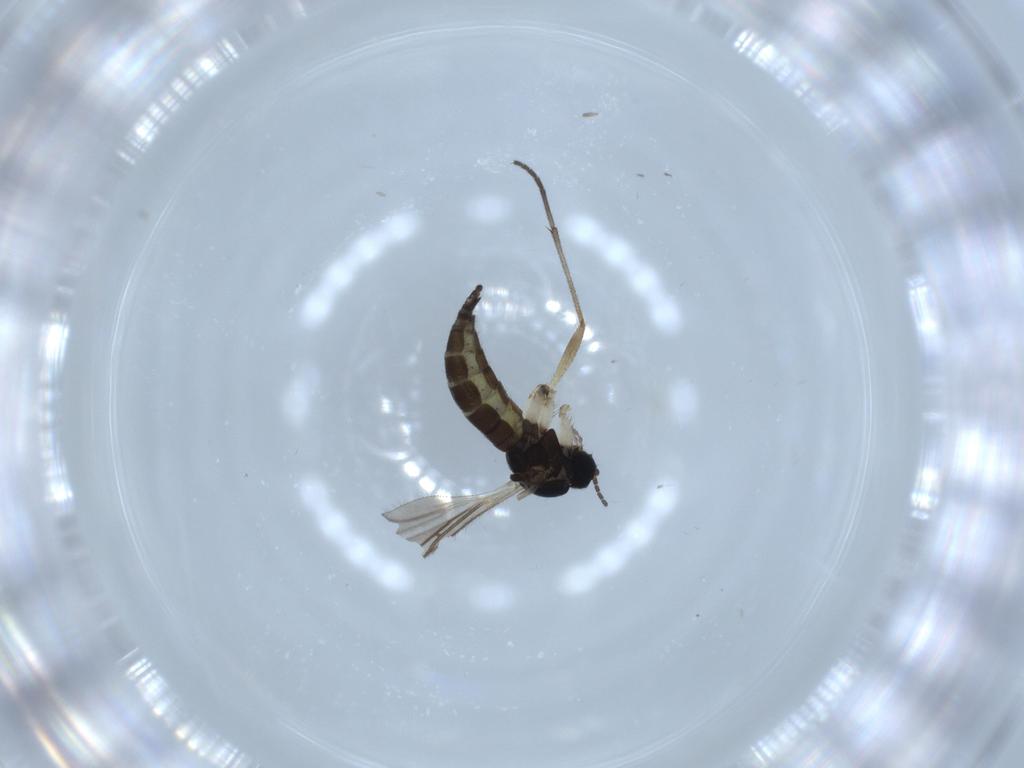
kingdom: Animalia
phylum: Arthropoda
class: Insecta
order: Diptera
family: Sciaridae
